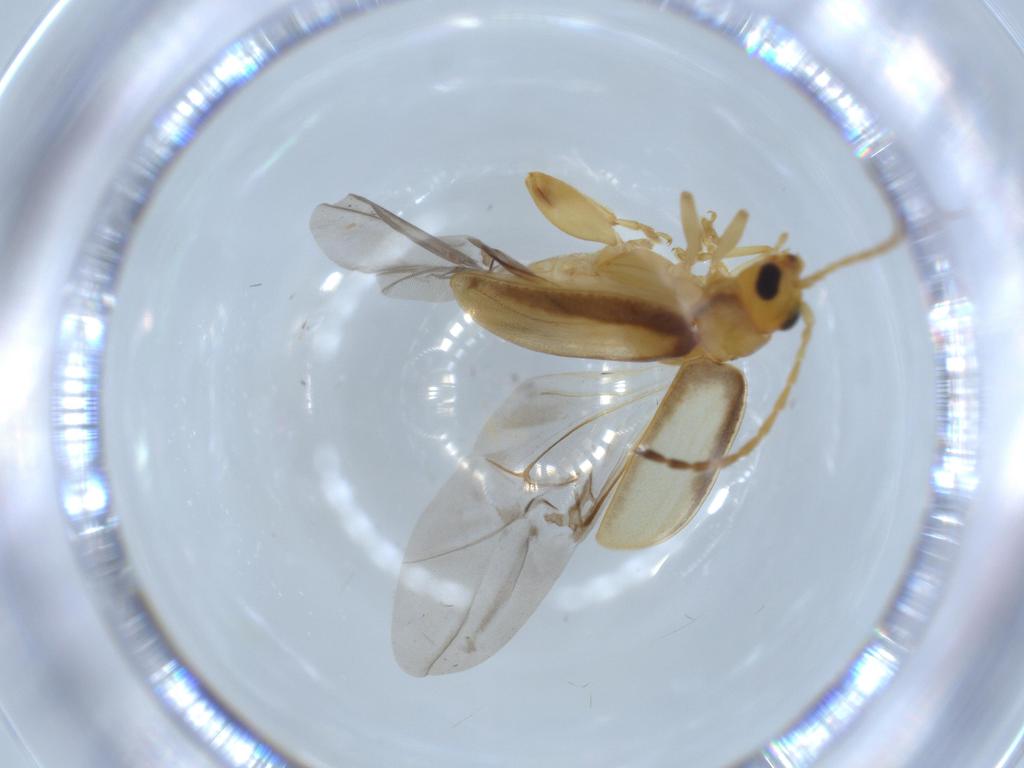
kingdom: Animalia
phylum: Arthropoda
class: Insecta
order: Coleoptera
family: Chrysomelidae
